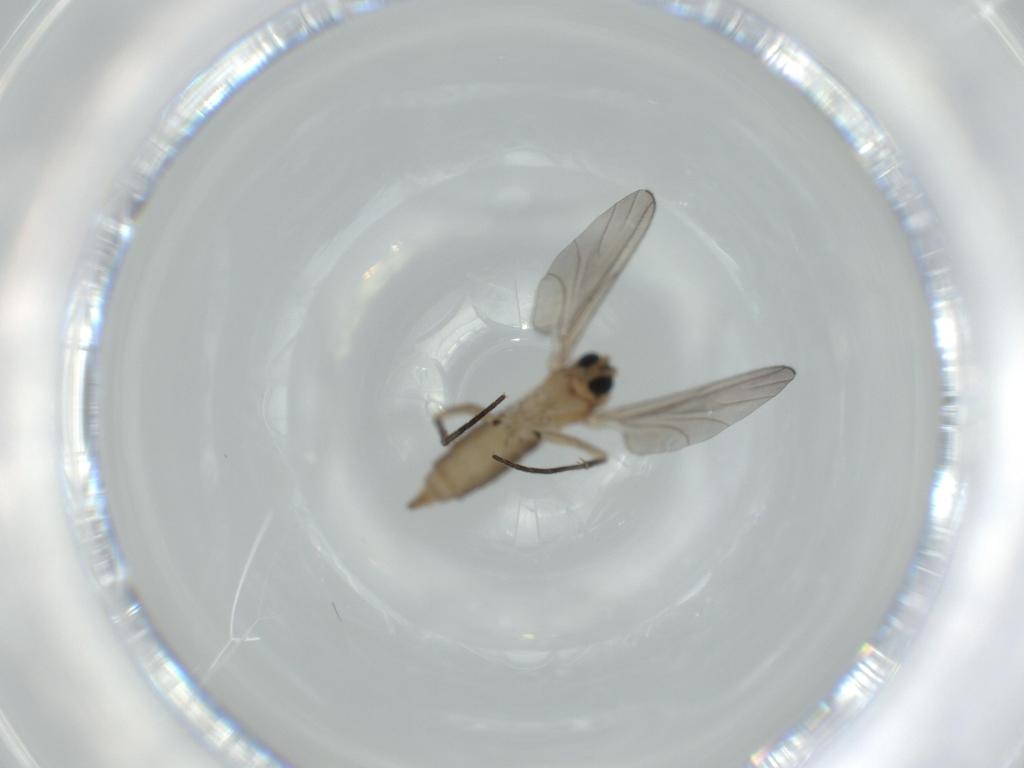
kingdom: Animalia
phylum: Arthropoda
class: Insecta
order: Diptera
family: Sciaridae
